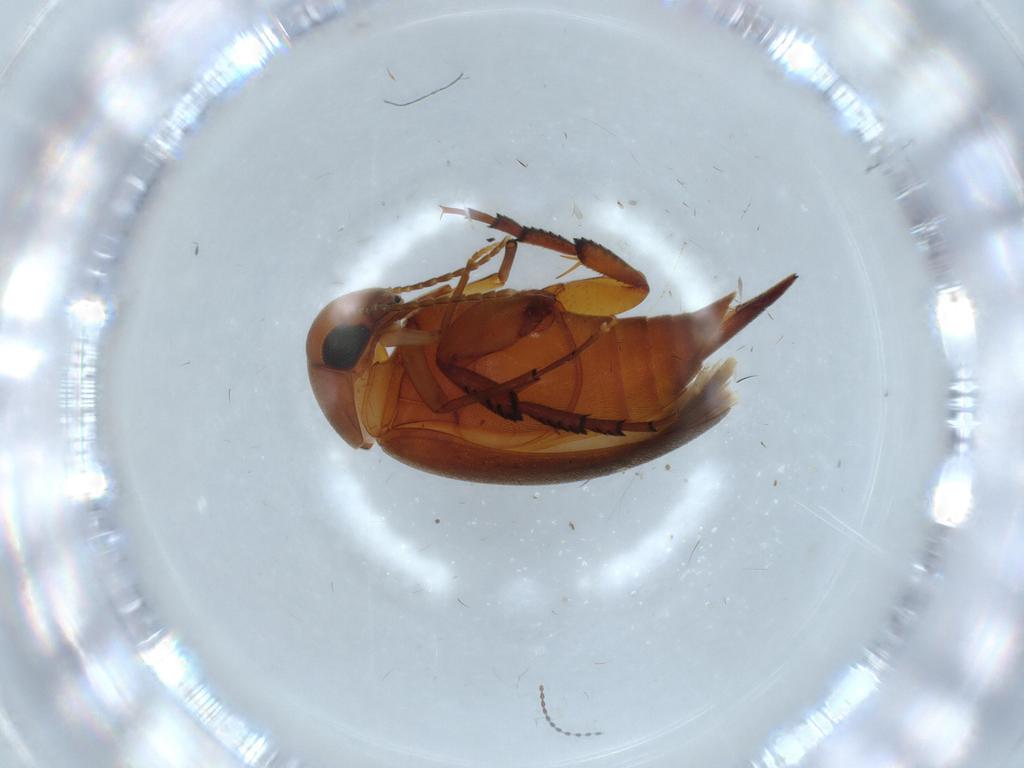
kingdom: Animalia
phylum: Arthropoda
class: Insecta
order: Coleoptera
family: Mordellidae
